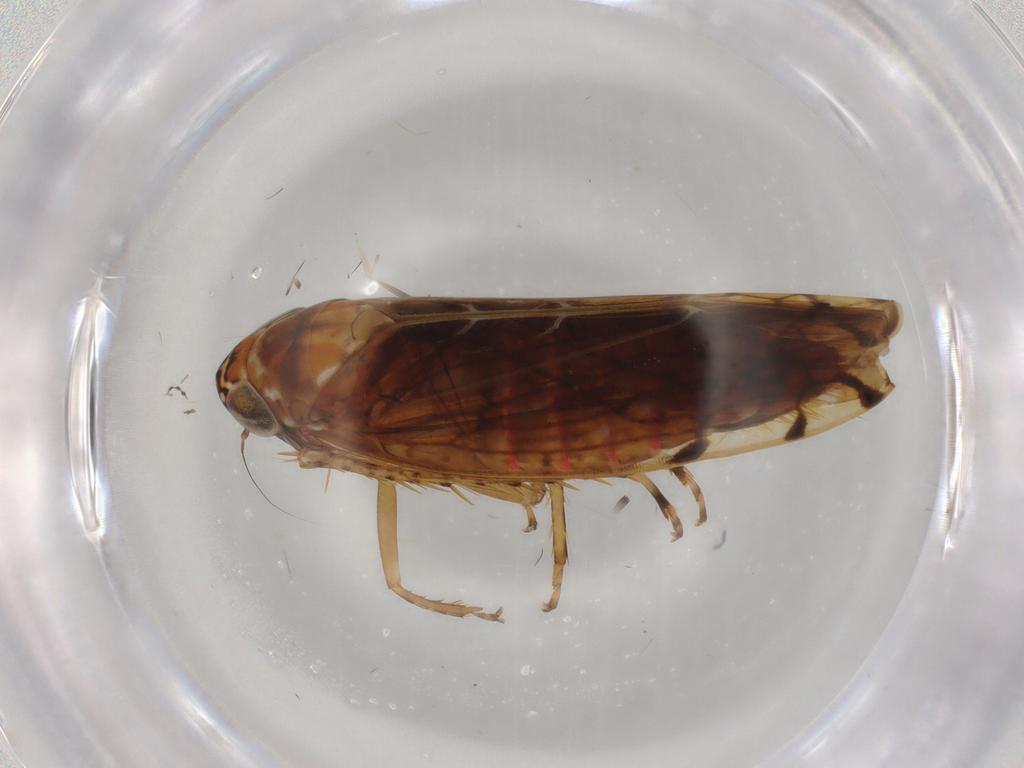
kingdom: Animalia
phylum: Arthropoda
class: Insecta
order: Hemiptera
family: Cicadellidae
